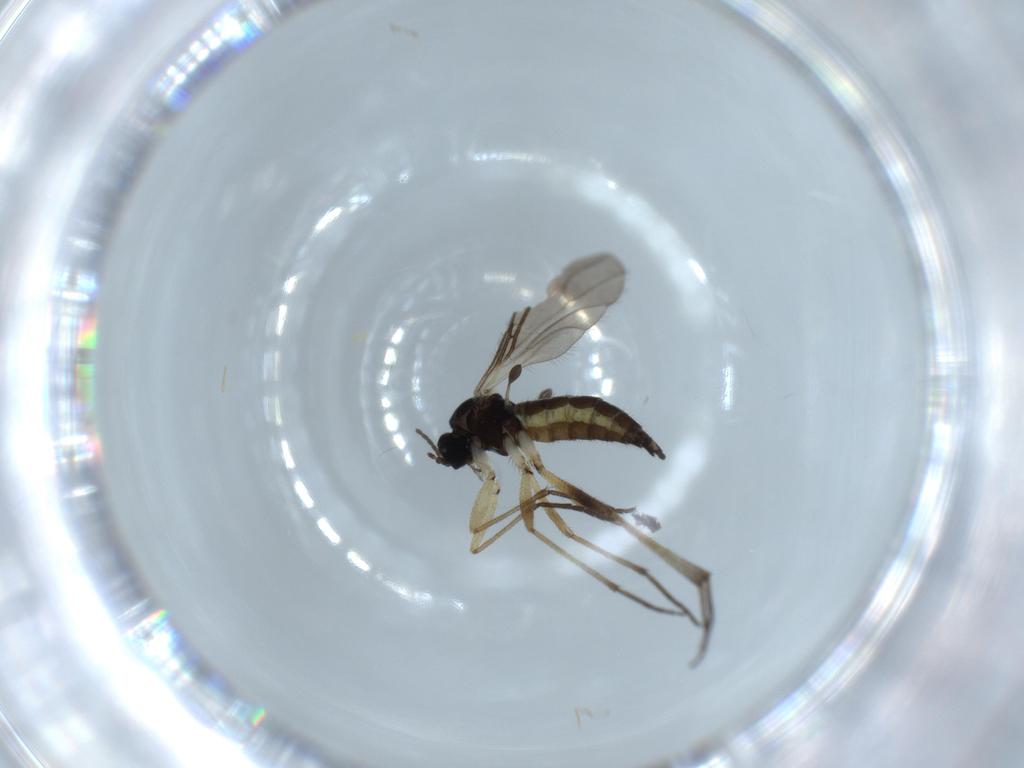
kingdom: Animalia
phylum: Arthropoda
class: Insecta
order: Diptera
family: Sciaridae
